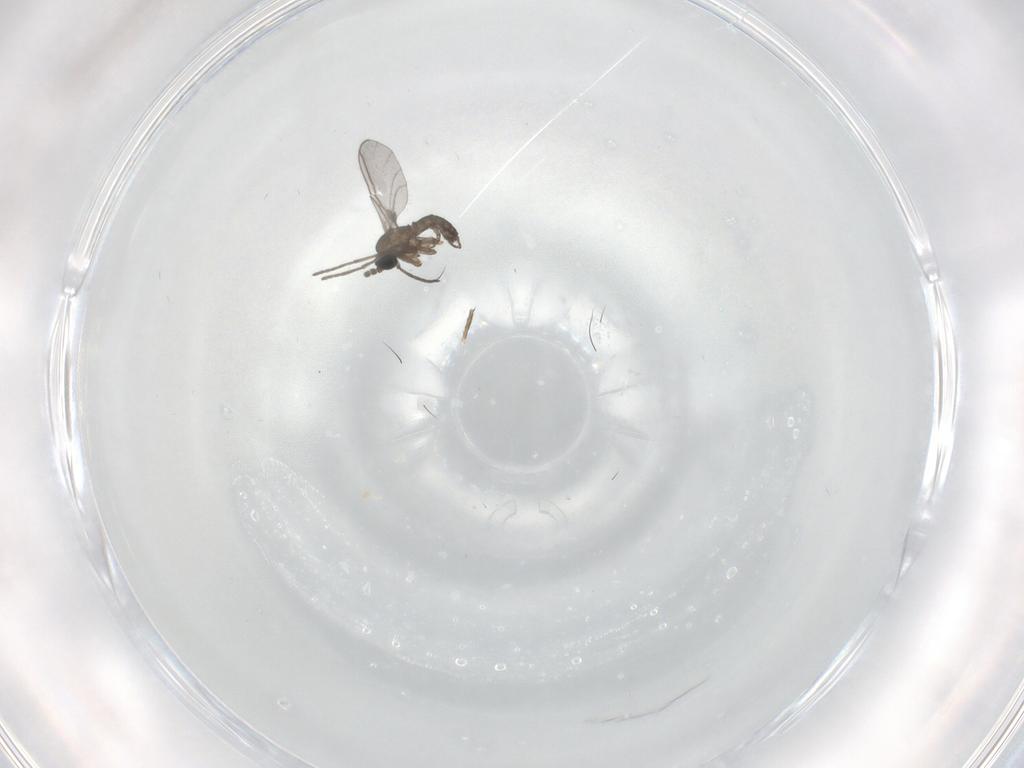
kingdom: Animalia
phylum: Arthropoda
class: Insecta
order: Diptera
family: Mycetophilidae
